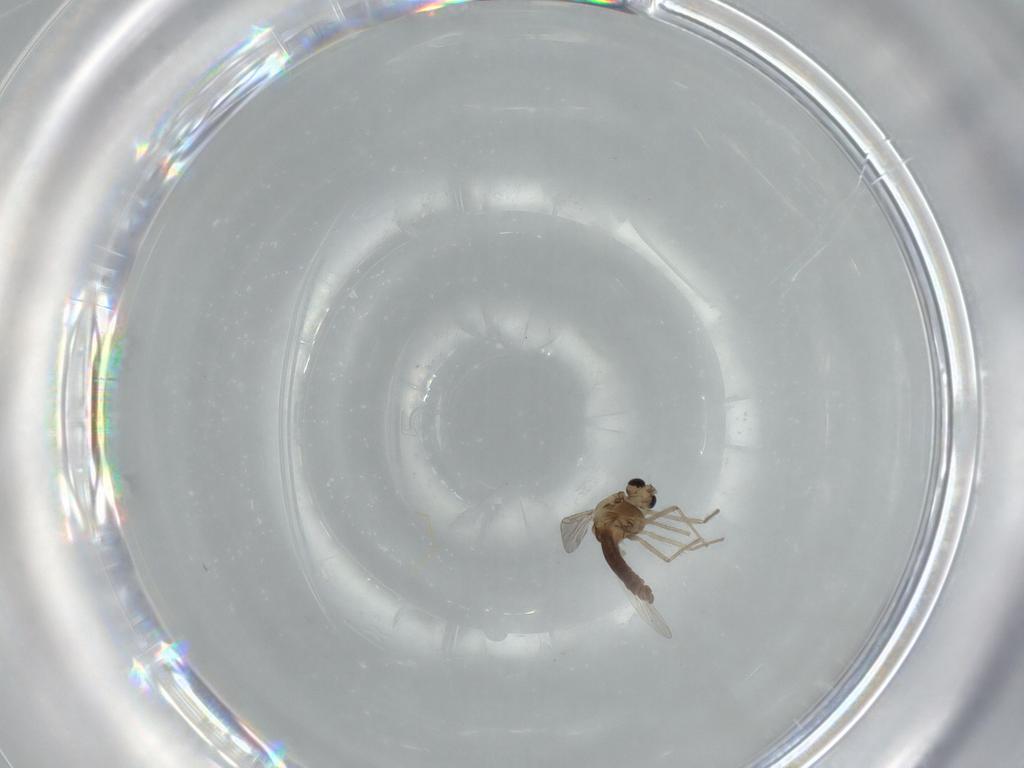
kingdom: Animalia
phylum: Arthropoda
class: Insecta
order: Diptera
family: Chironomidae
